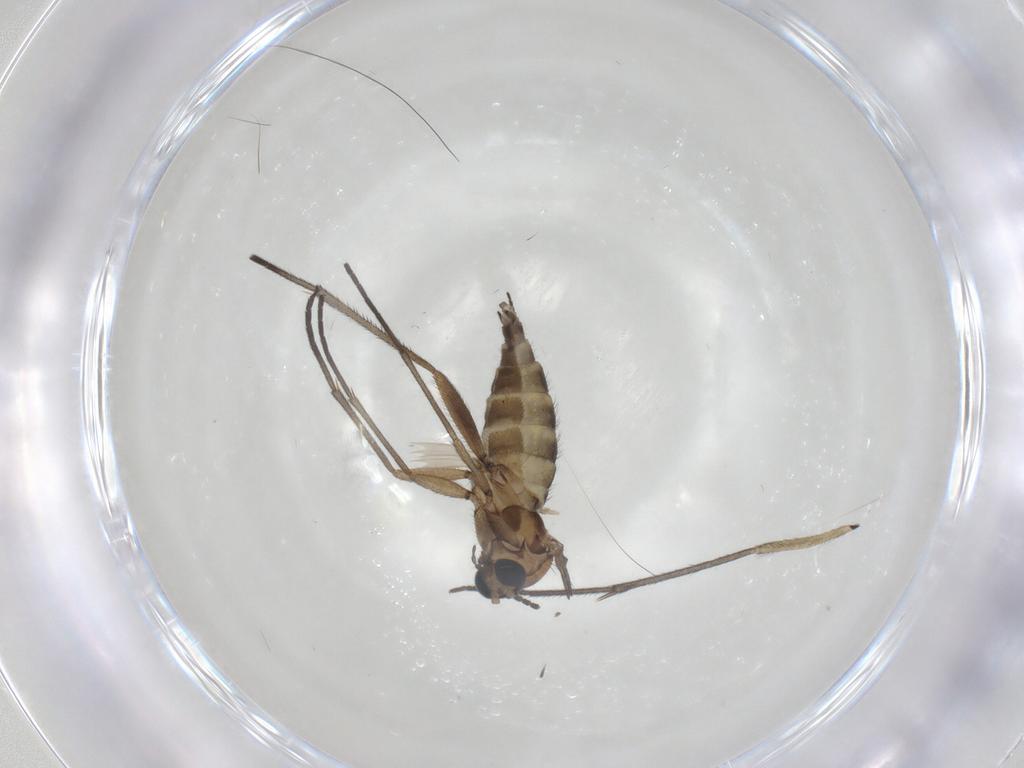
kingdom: Animalia
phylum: Arthropoda
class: Insecta
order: Diptera
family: Sciaridae
